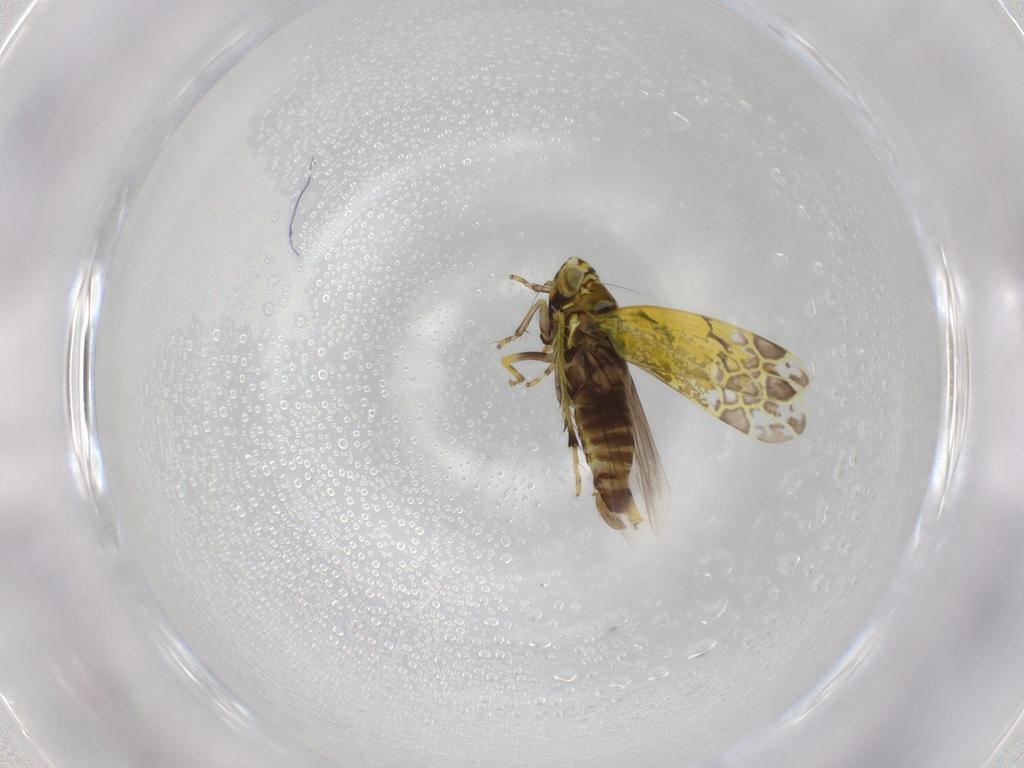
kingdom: Animalia
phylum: Arthropoda
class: Insecta
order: Hemiptera
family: Cicadellidae
